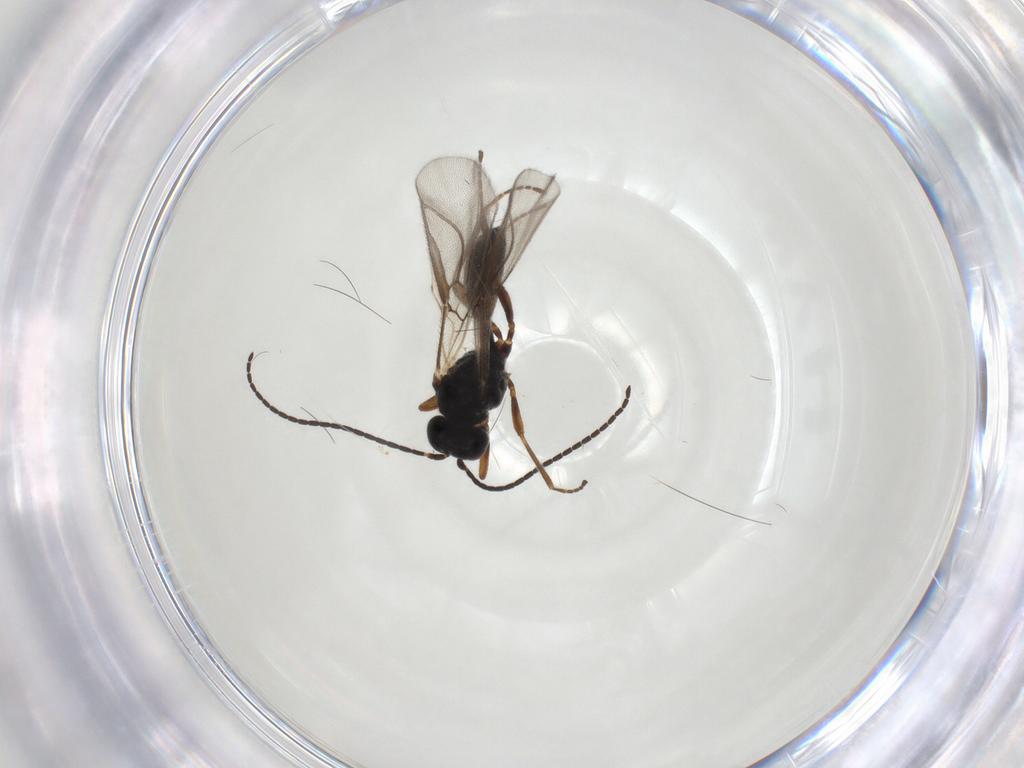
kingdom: Animalia
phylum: Arthropoda
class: Insecta
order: Hymenoptera
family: Braconidae
